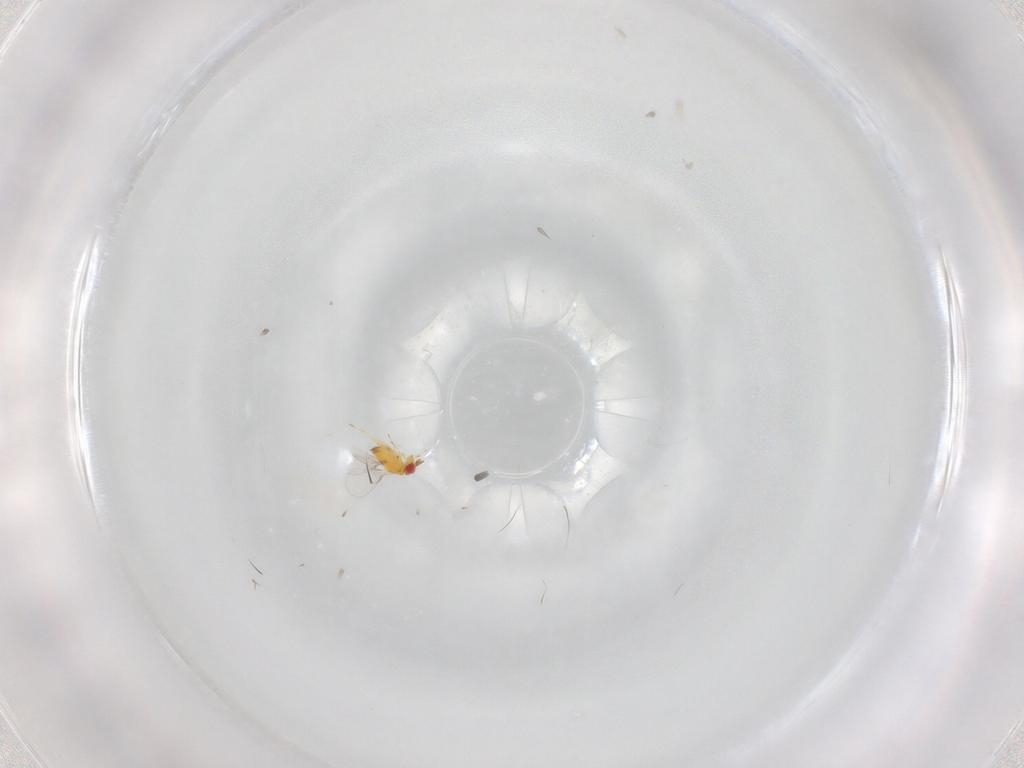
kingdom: Animalia
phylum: Arthropoda
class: Insecta
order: Hymenoptera
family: Trichogrammatidae
